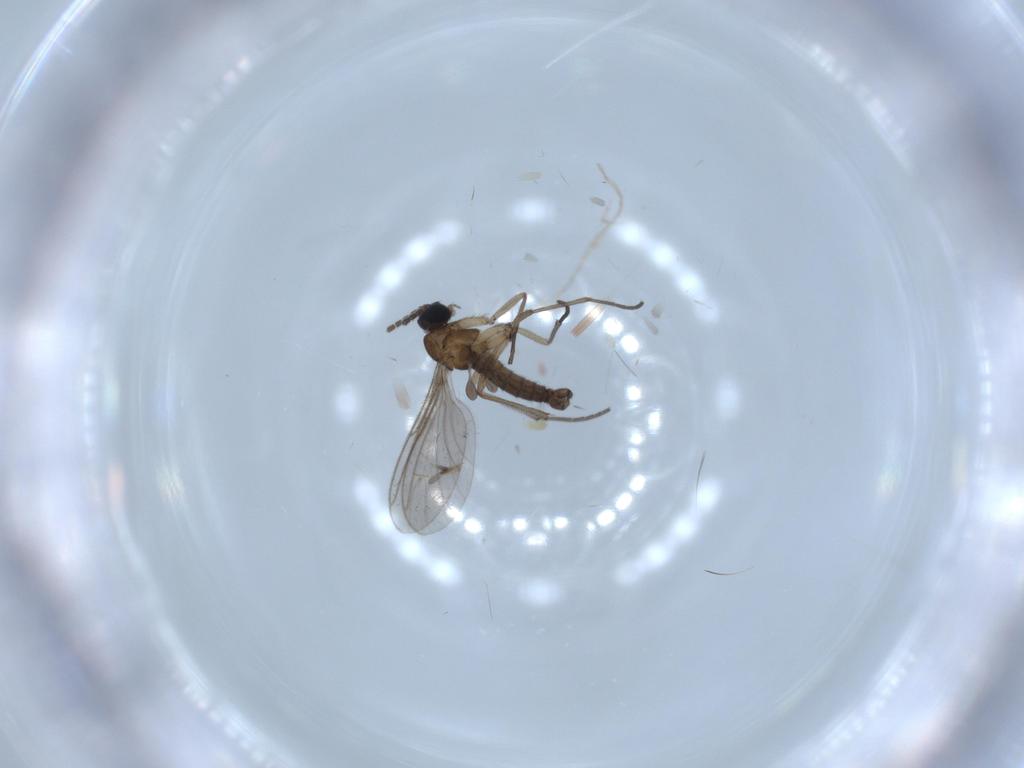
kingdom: Animalia
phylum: Arthropoda
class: Insecta
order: Diptera
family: Sciaridae
